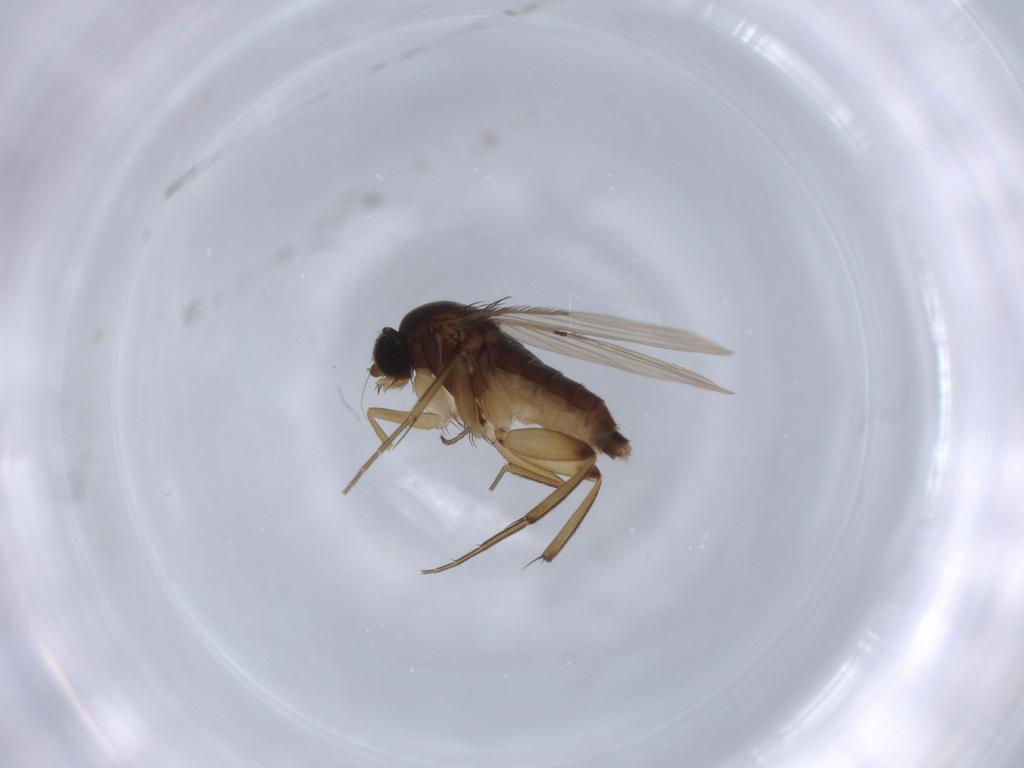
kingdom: Animalia
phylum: Arthropoda
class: Insecta
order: Diptera
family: Phoridae
